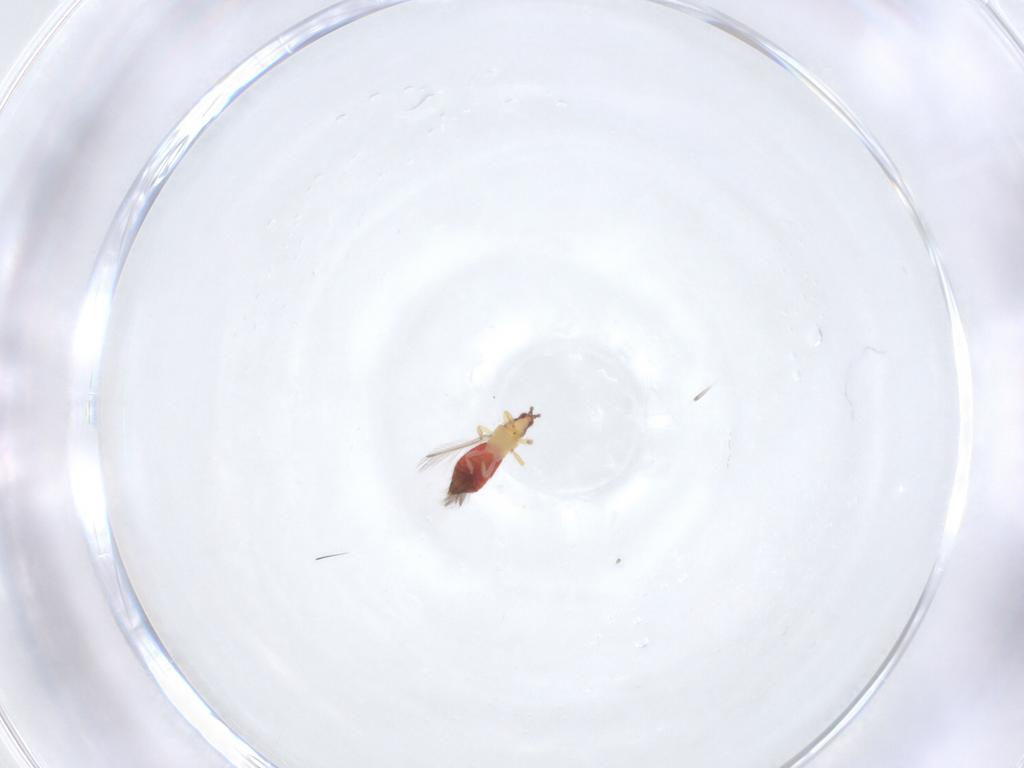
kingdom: Animalia
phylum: Arthropoda
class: Insecta
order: Thysanoptera
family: Thripidae
